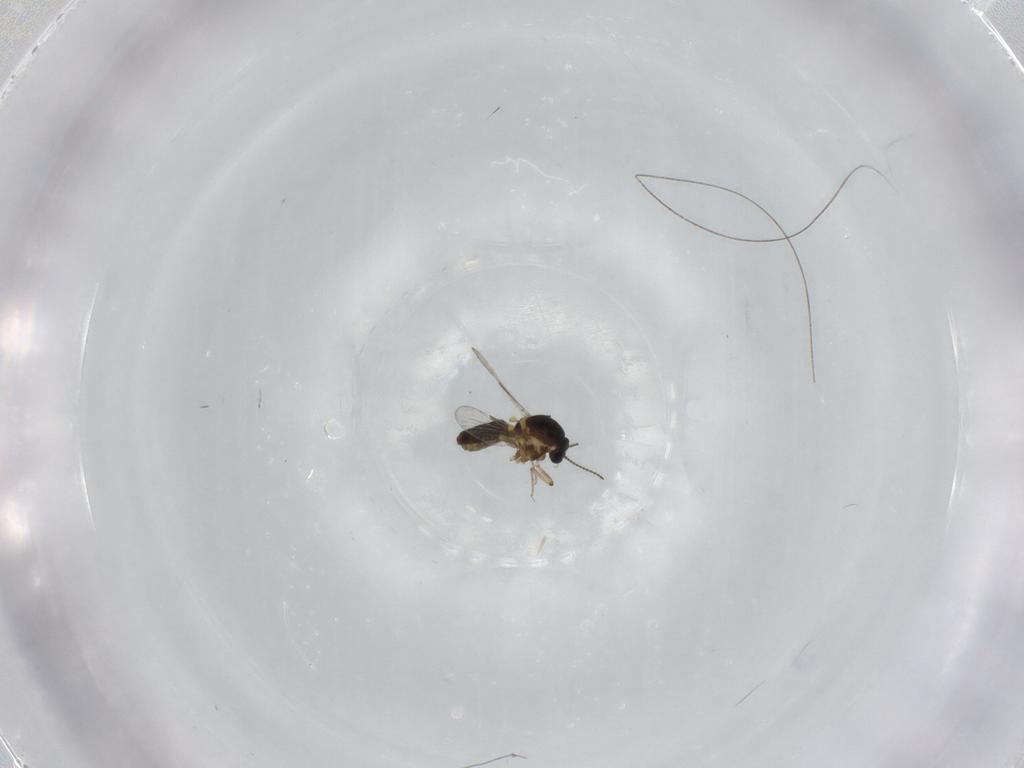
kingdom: Animalia
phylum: Arthropoda
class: Insecta
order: Diptera
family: Ceratopogonidae
